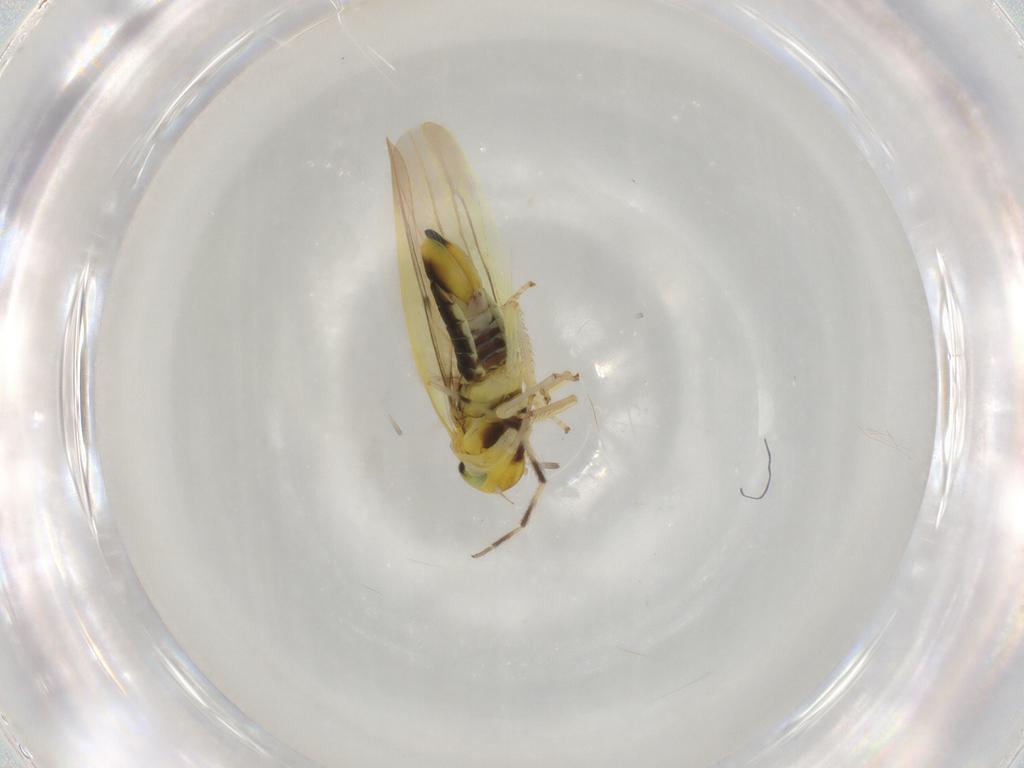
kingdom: Animalia
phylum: Arthropoda
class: Insecta
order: Hemiptera
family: Cicadellidae
